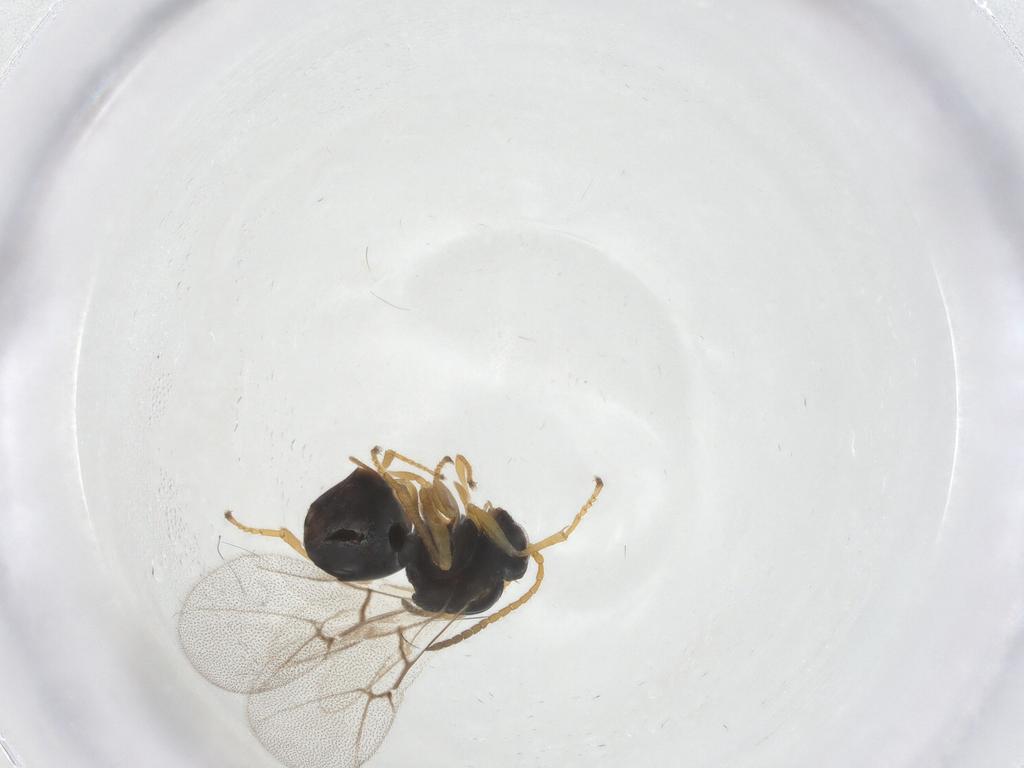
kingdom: Animalia
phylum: Arthropoda
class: Insecta
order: Hymenoptera
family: Cynipidae
